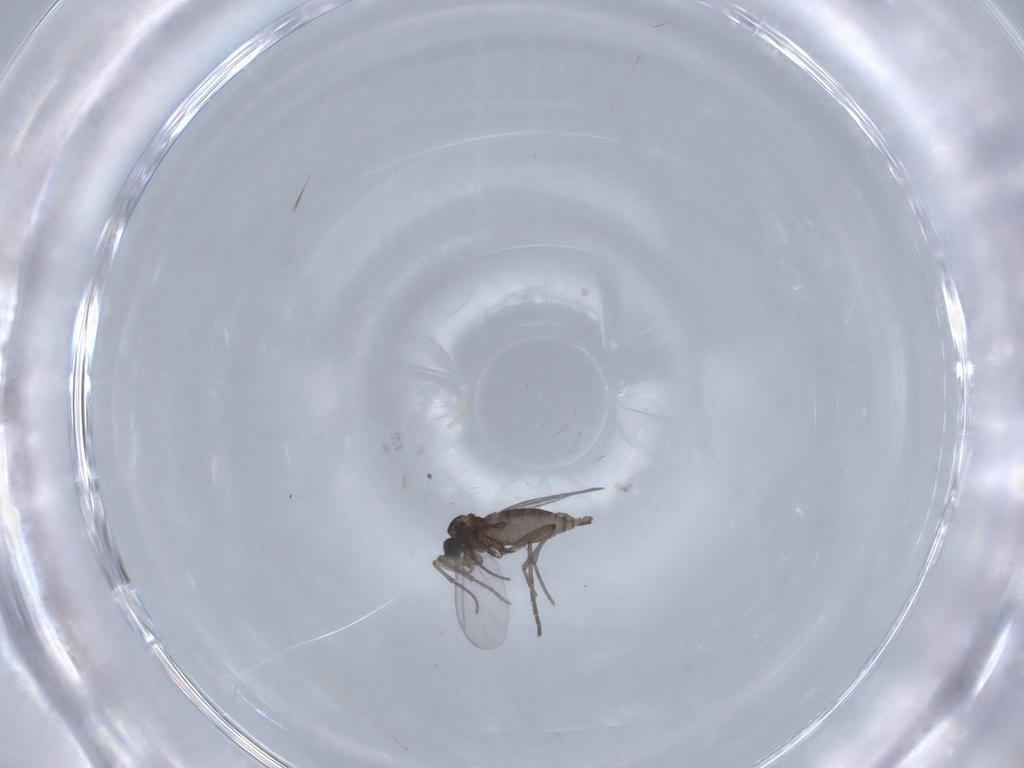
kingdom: Animalia
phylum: Arthropoda
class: Insecta
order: Diptera
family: Sciaridae
